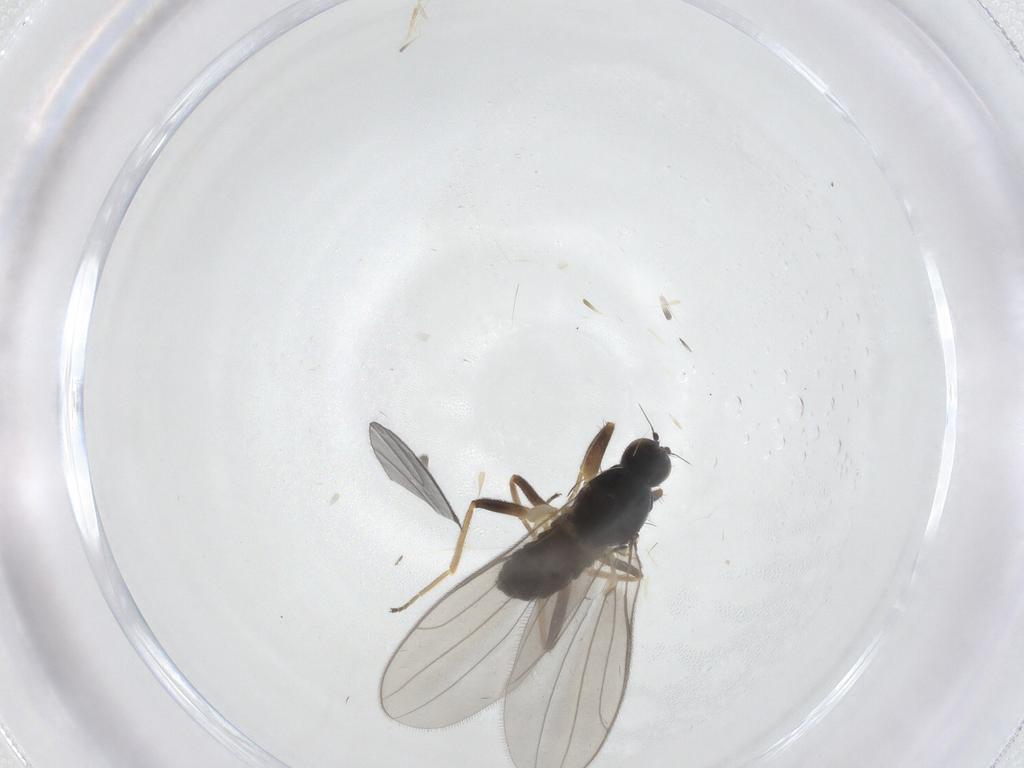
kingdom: Animalia
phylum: Arthropoda
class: Insecta
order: Diptera
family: Hybotidae
